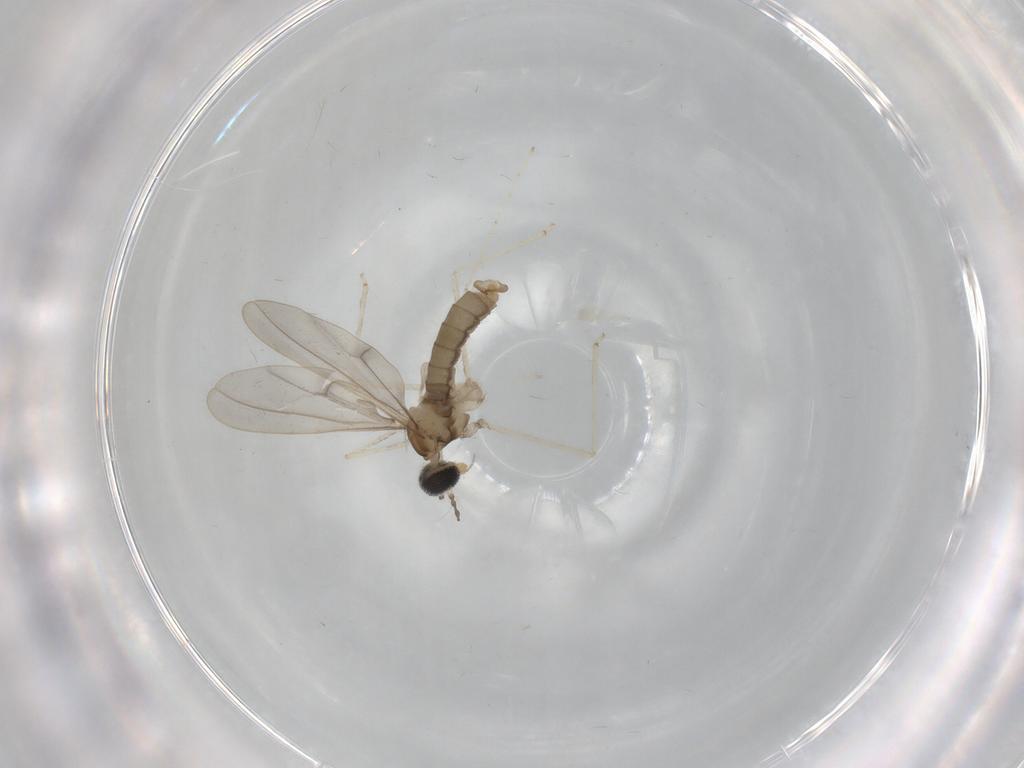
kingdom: Animalia
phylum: Arthropoda
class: Insecta
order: Diptera
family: Cecidomyiidae
